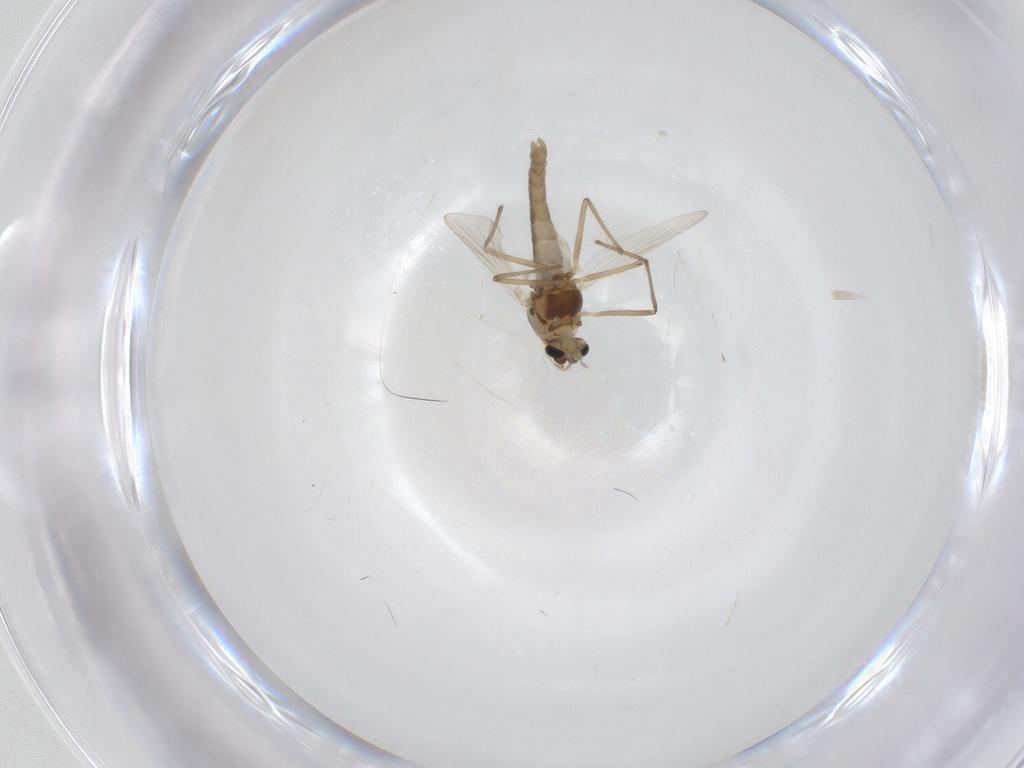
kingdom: Animalia
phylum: Arthropoda
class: Insecta
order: Diptera
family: Chironomidae
